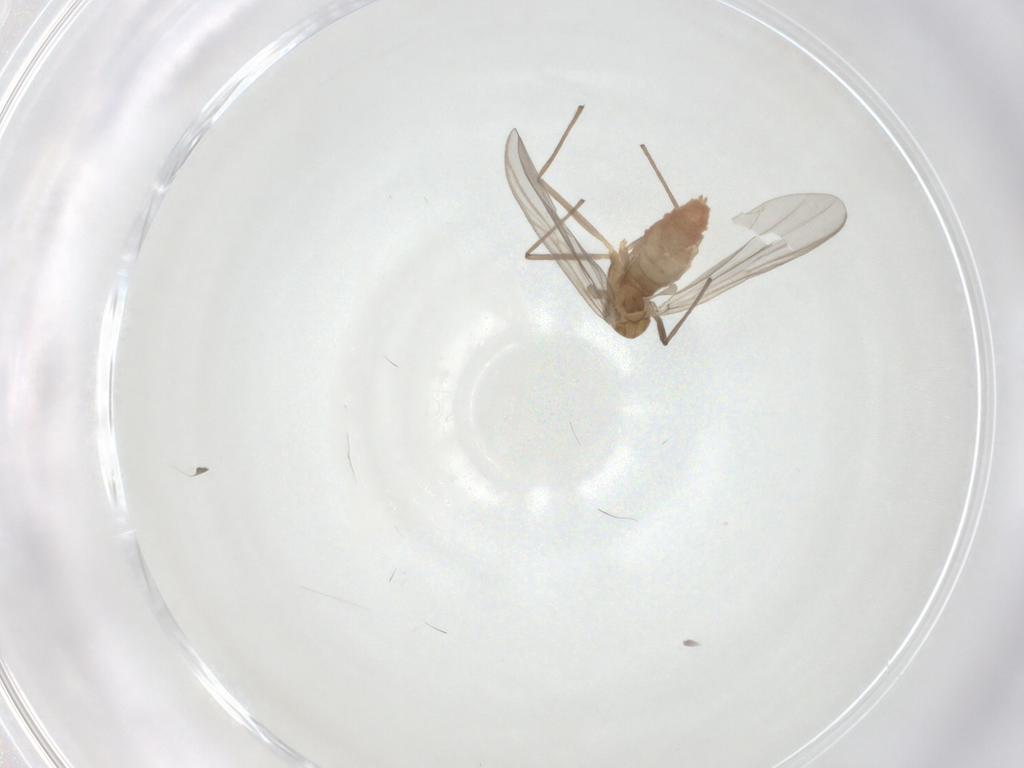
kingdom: Animalia
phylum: Arthropoda
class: Insecta
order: Diptera
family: Chironomidae
